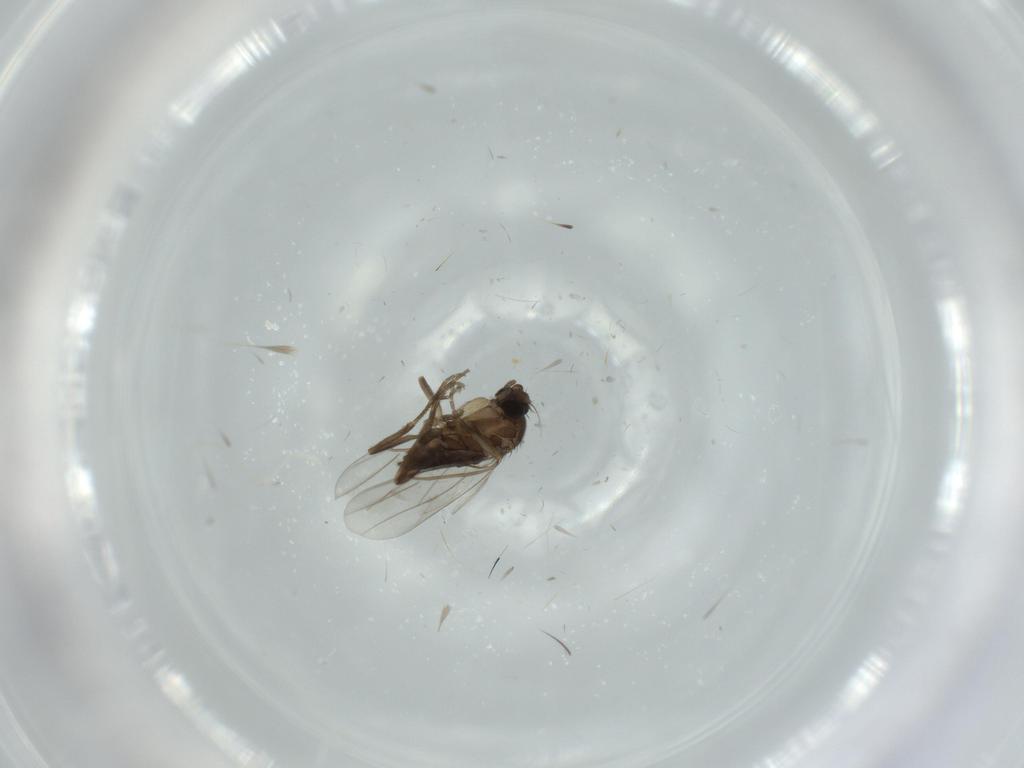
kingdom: Animalia
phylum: Arthropoda
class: Insecta
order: Diptera
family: Phoridae
